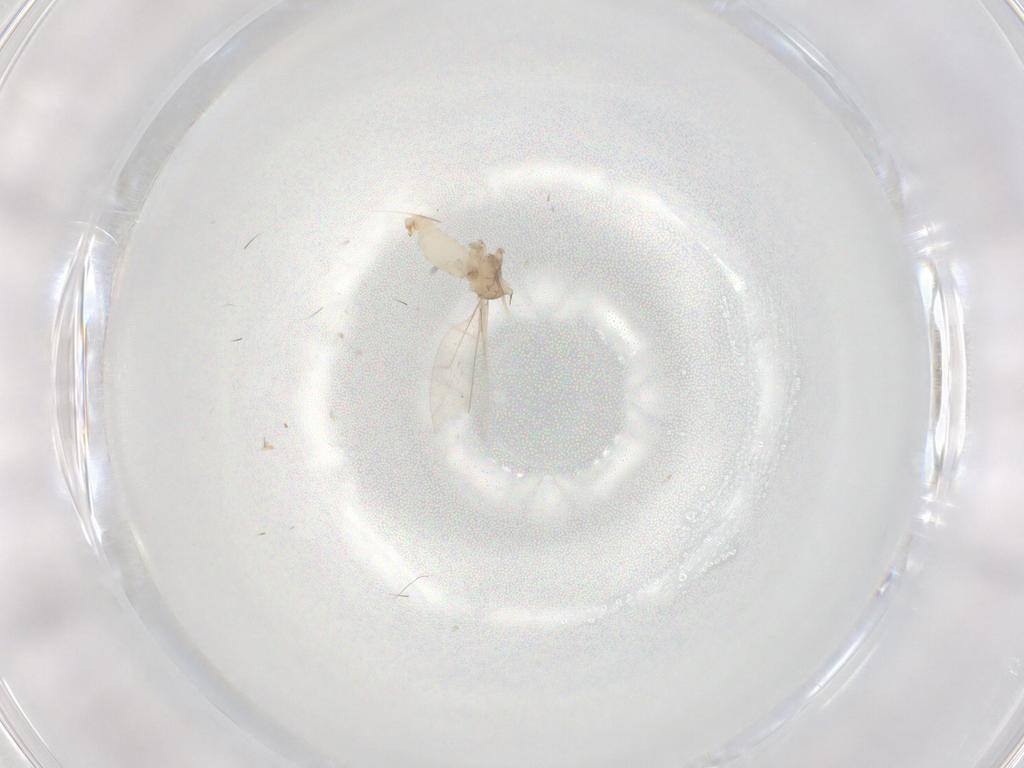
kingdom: Animalia
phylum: Arthropoda
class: Insecta
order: Diptera
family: Cecidomyiidae
